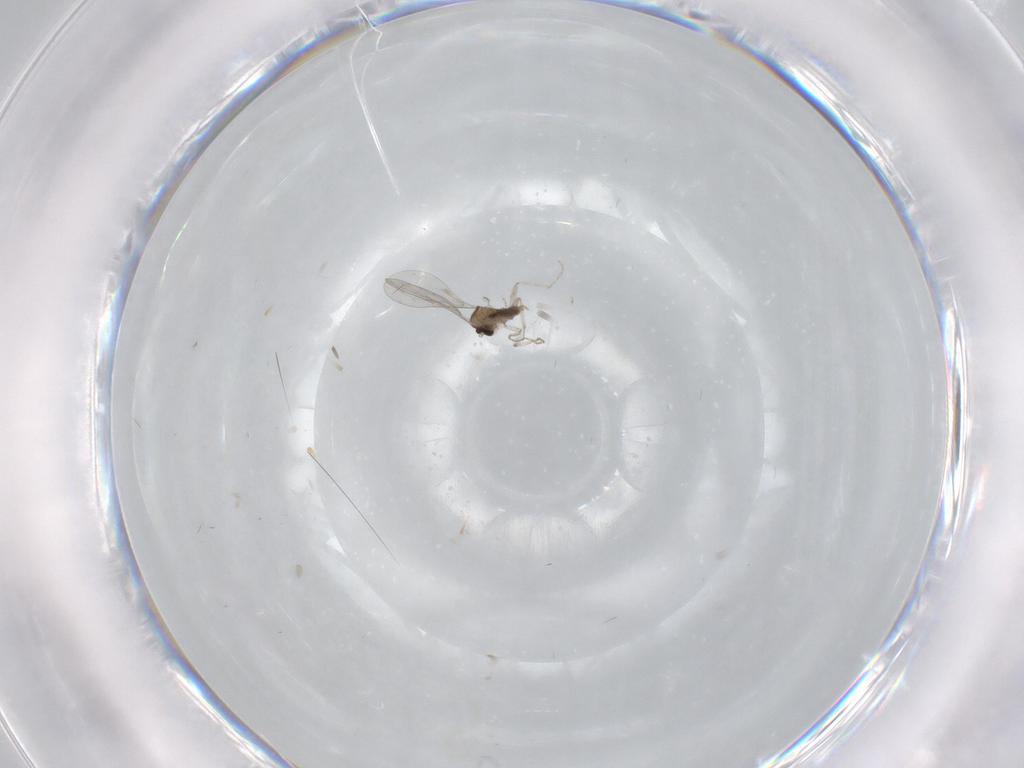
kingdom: Animalia
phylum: Arthropoda
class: Insecta
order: Diptera
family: Cecidomyiidae
